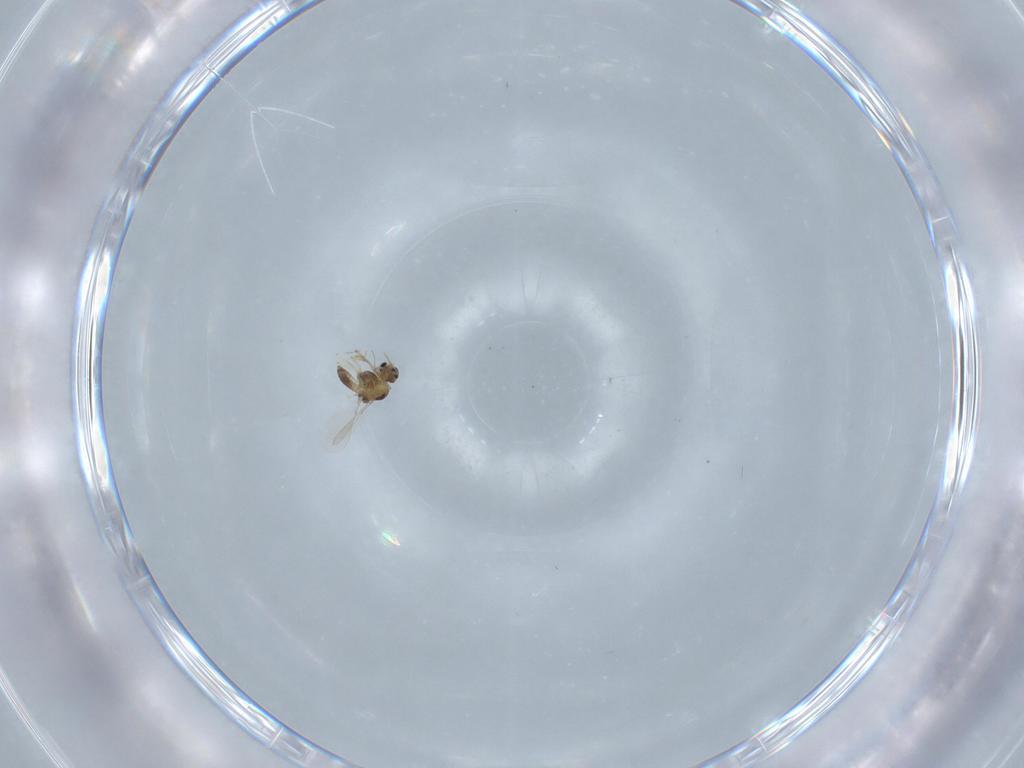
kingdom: Animalia
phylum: Arthropoda
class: Insecta
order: Diptera
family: Chironomidae
